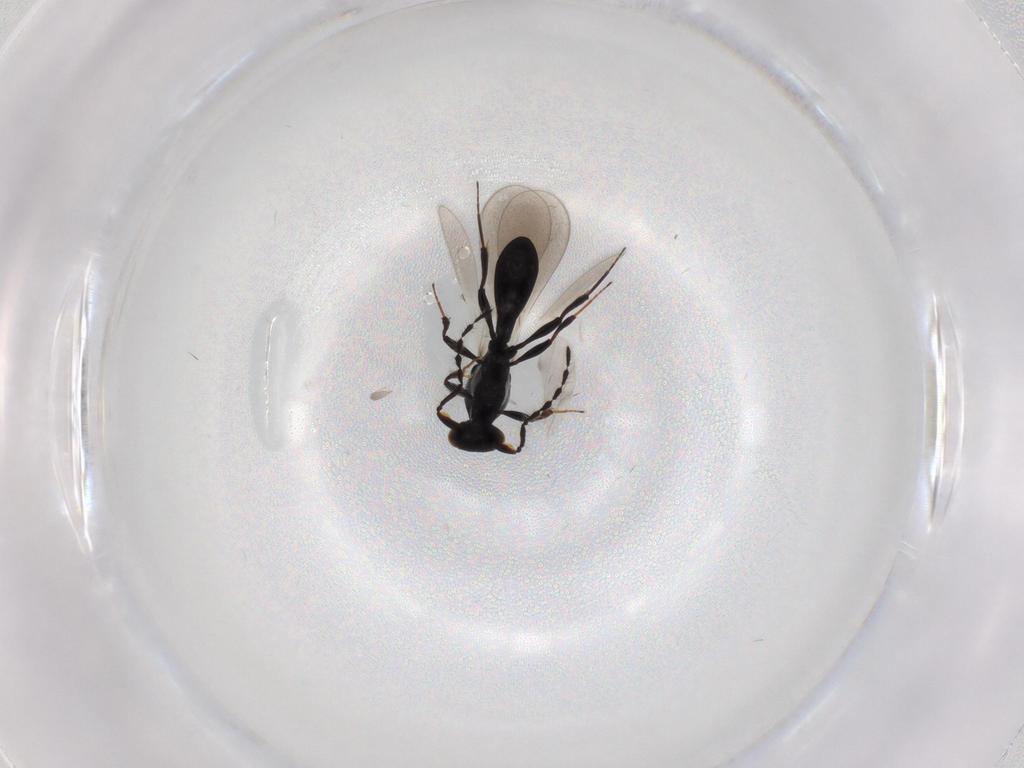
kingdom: Animalia
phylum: Arthropoda
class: Insecta
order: Hymenoptera
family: Platygastridae
